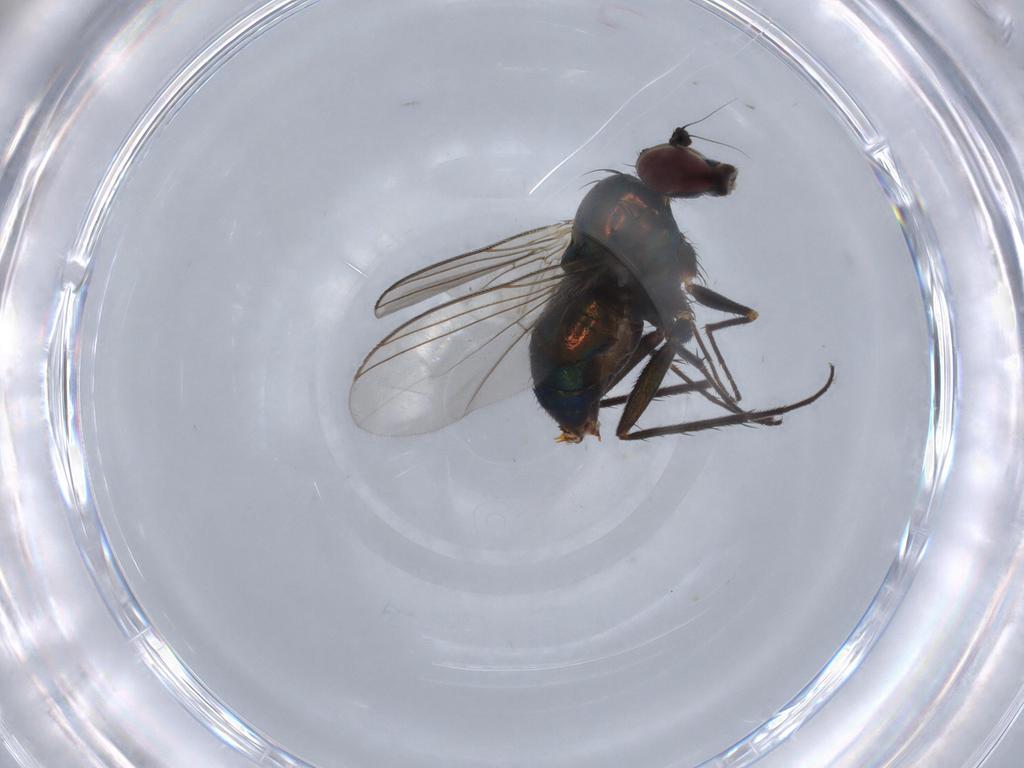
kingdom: Animalia
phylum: Arthropoda
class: Insecta
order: Diptera
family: Dolichopodidae
